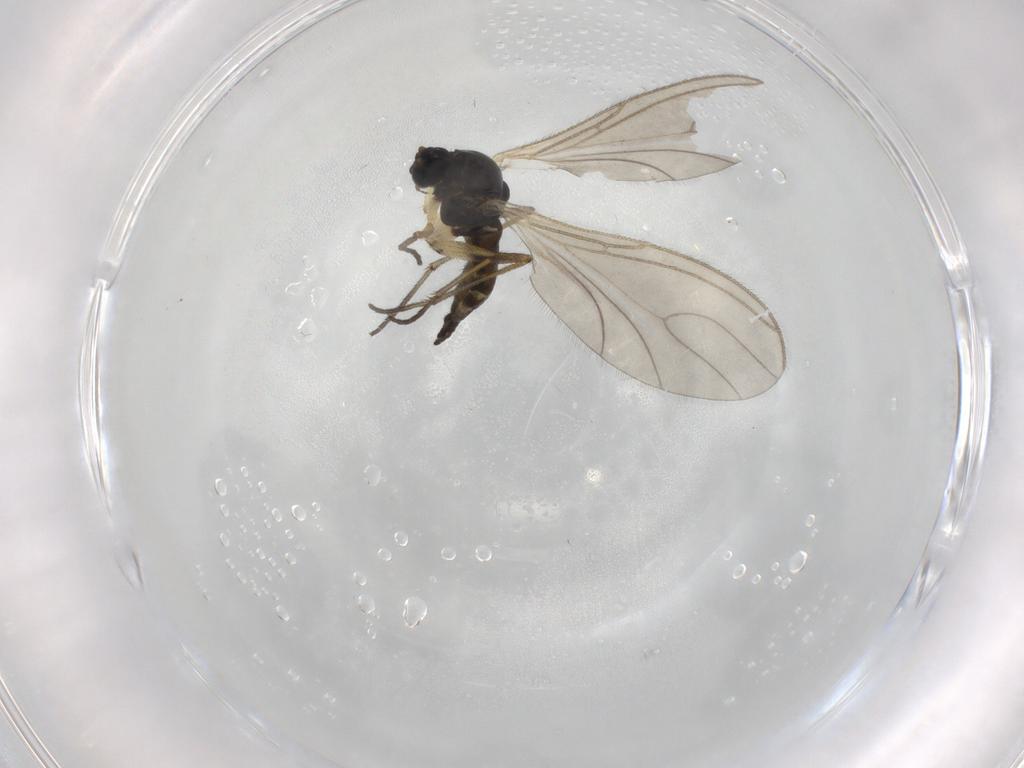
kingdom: Animalia
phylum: Arthropoda
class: Insecta
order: Diptera
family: Sciaridae
